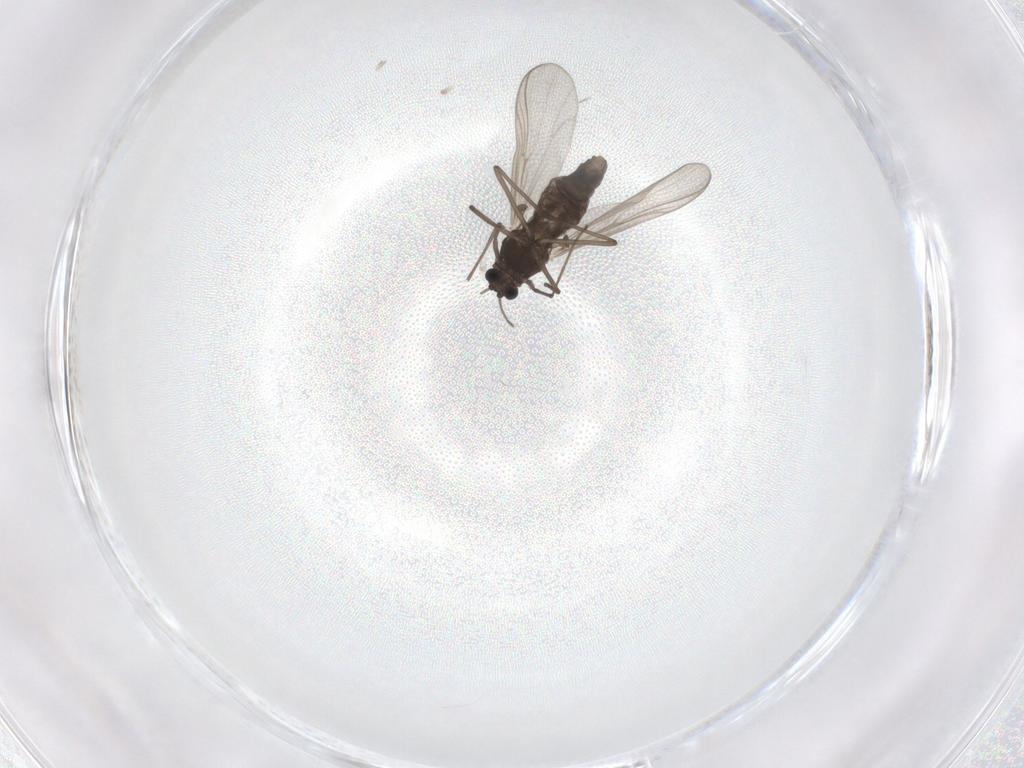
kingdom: Animalia
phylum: Arthropoda
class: Insecta
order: Diptera
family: Chironomidae
